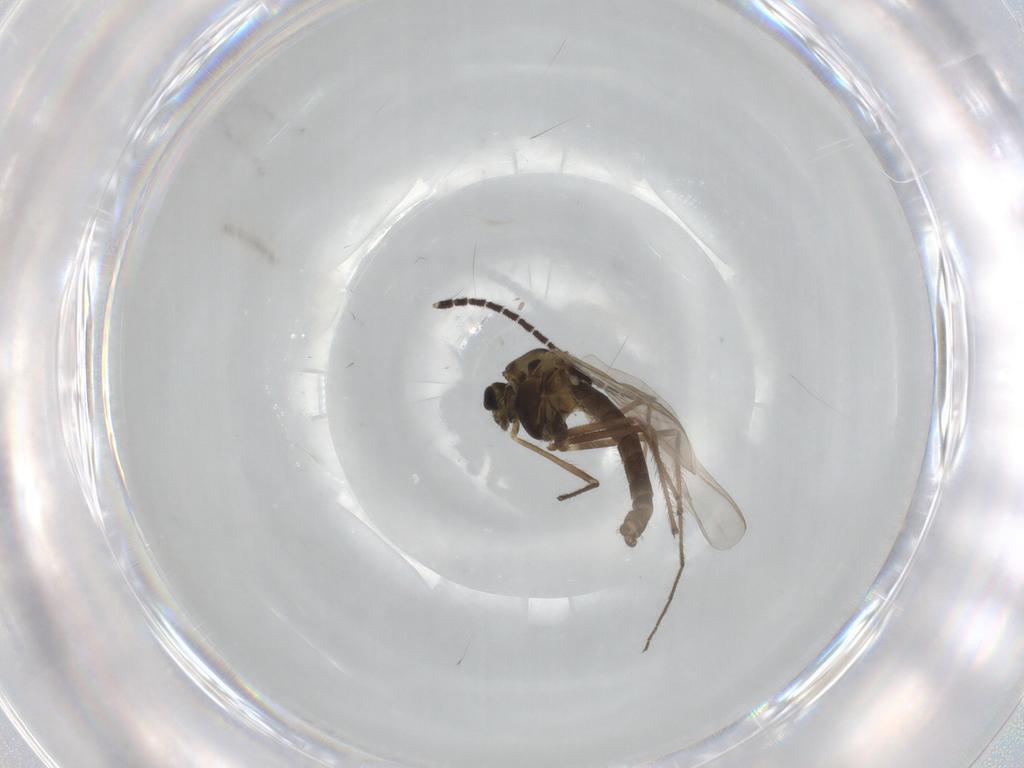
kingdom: Animalia
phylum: Arthropoda
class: Insecta
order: Diptera
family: Chironomidae
